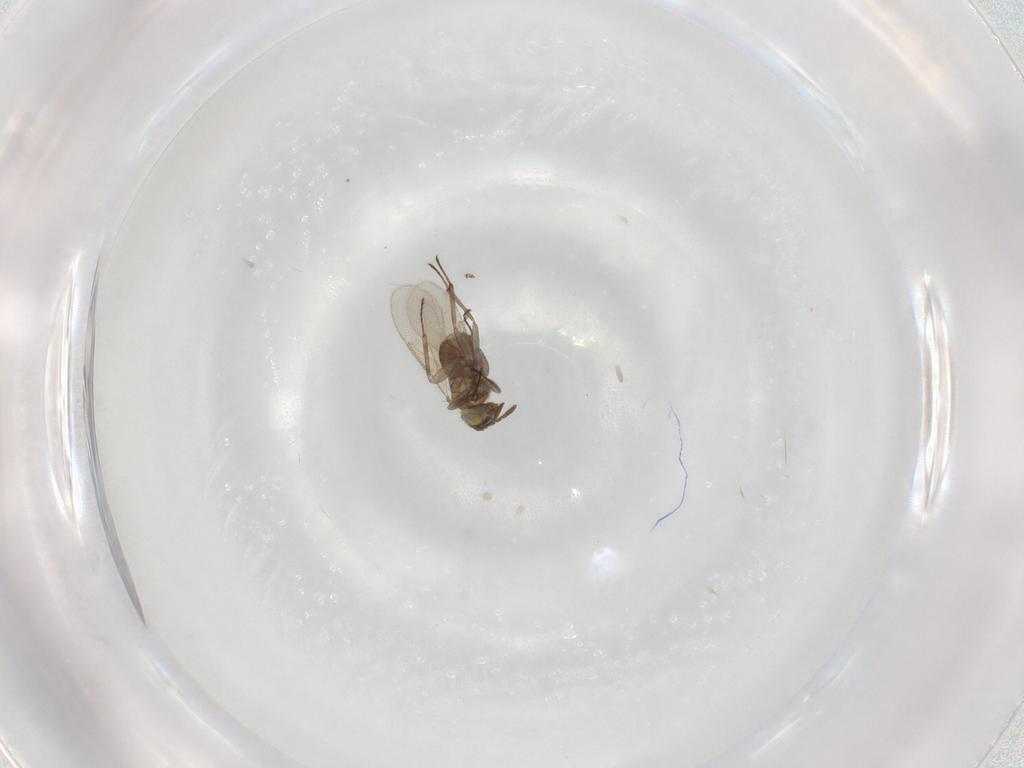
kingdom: Animalia
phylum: Arthropoda
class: Insecta
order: Hymenoptera
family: Aphelinidae
